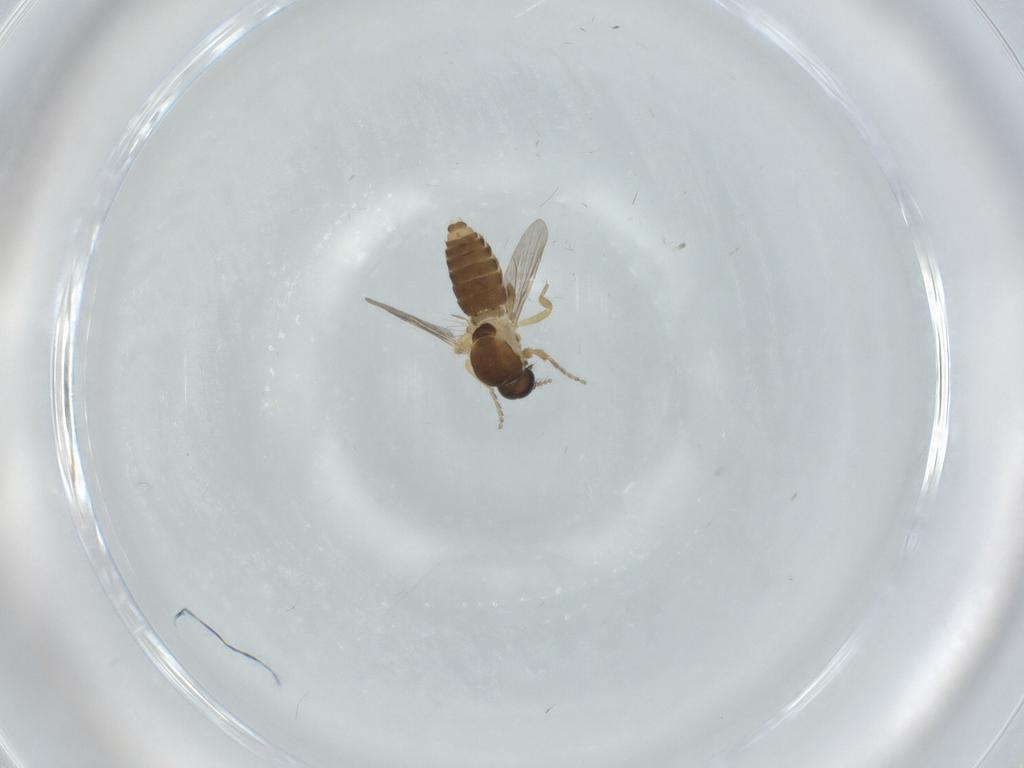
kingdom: Animalia
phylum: Arthropoda
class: Insecta
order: Diptera
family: Ceratopogonidae
